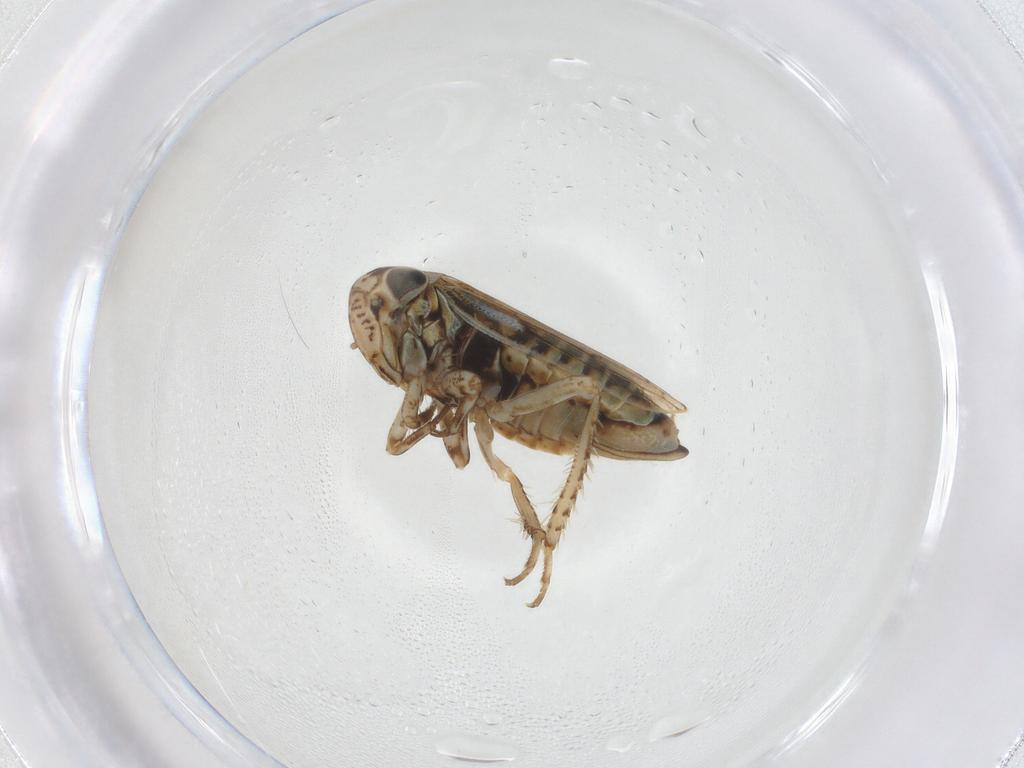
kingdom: Animalia
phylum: Arthropoda
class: Insecta
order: Hemiptera
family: Cicadellidae
